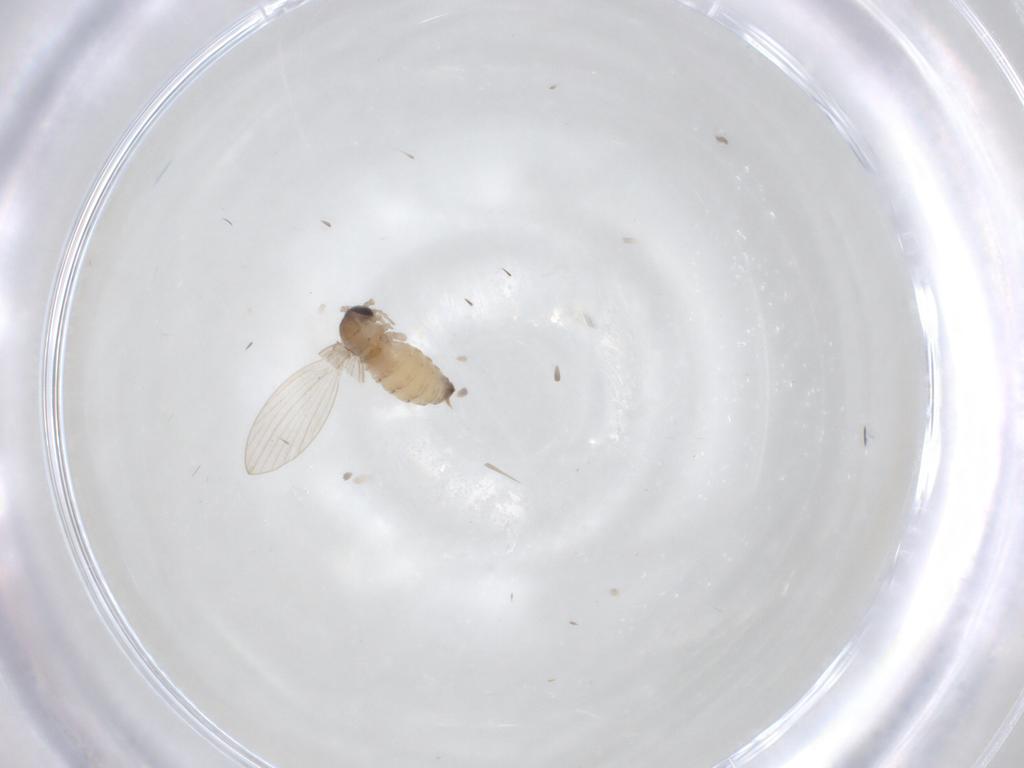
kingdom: Animalia
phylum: Arthropoda
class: Insecta
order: Diptera
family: Psychodidae
